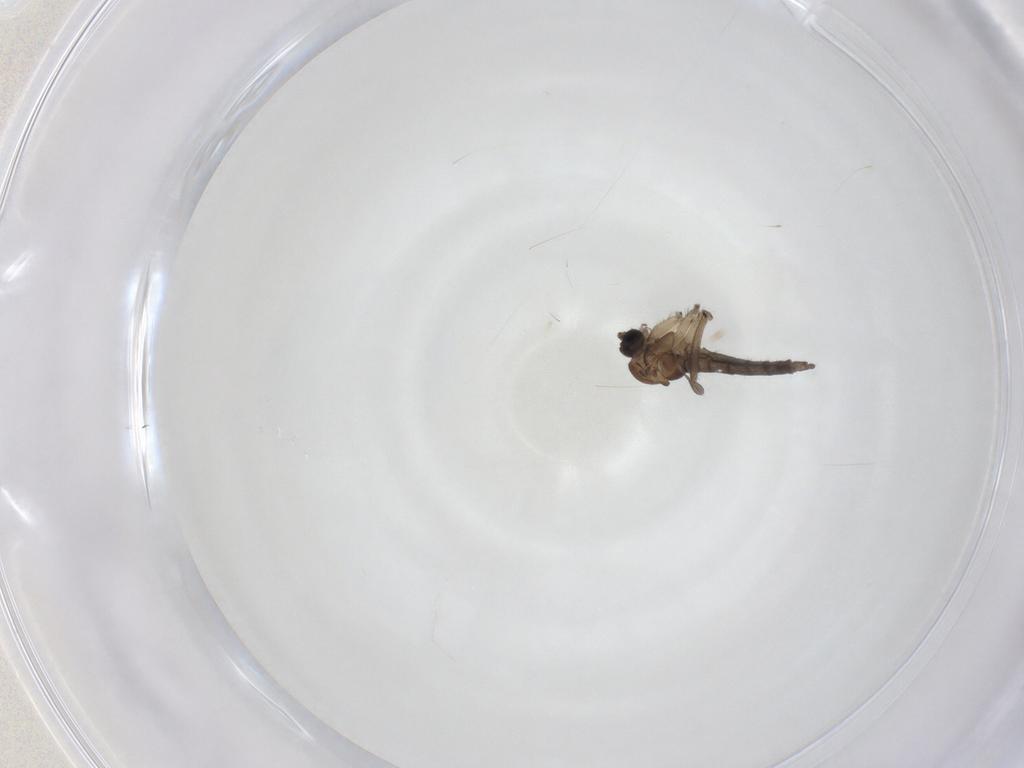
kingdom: Animalia
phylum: Arthropoda
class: Insecta
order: Diptera
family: Sciaridae
